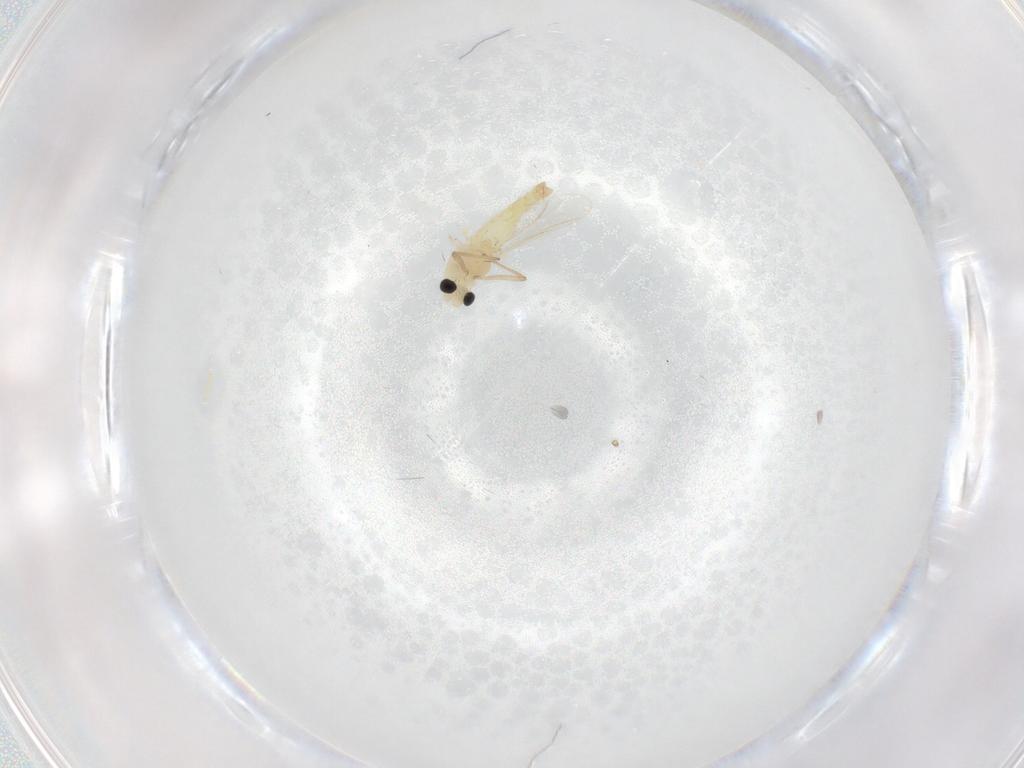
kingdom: Animalia
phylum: Arthropoda
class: Insecta
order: Diptera
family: Chironomidae
